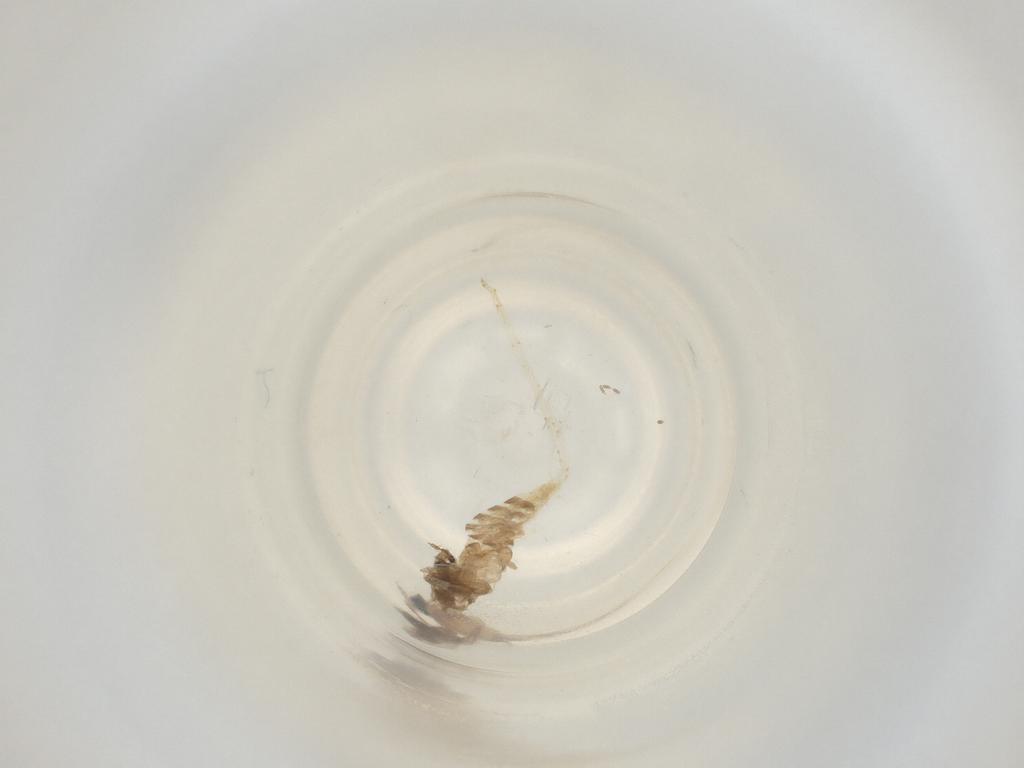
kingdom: Animalia
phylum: Arthropoda
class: Insecta
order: Diptera
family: Cecidomyiidae
